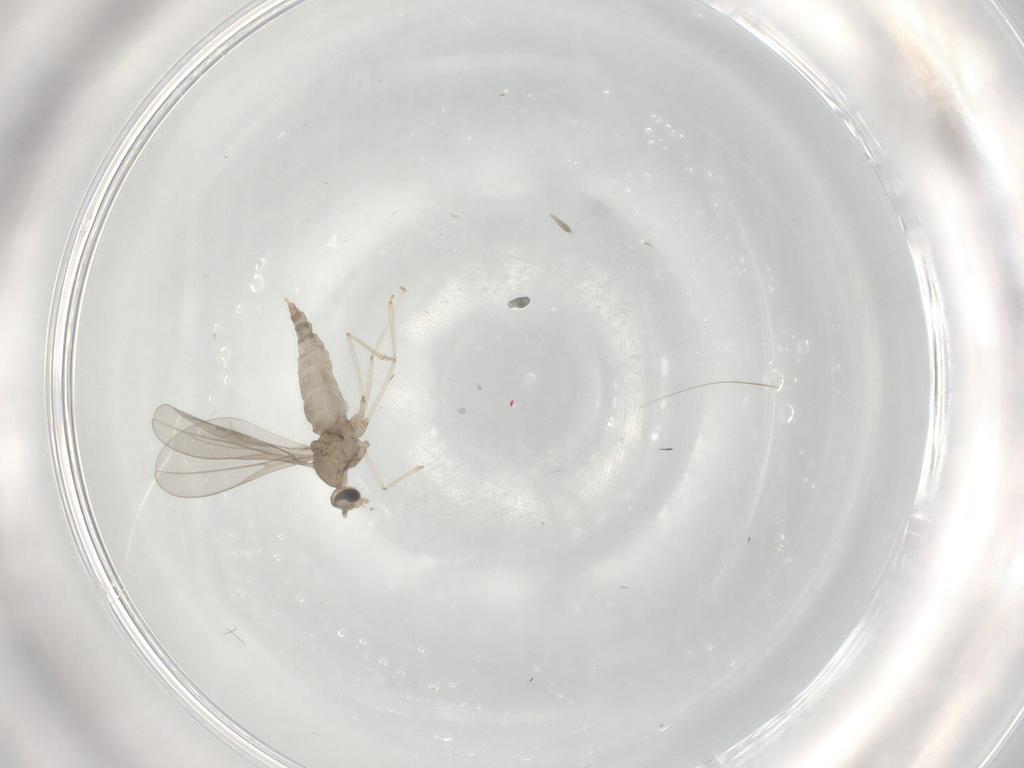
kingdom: Animalia
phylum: Arthropoda
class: Insecta
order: Diptera
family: Cecidomyiidae
